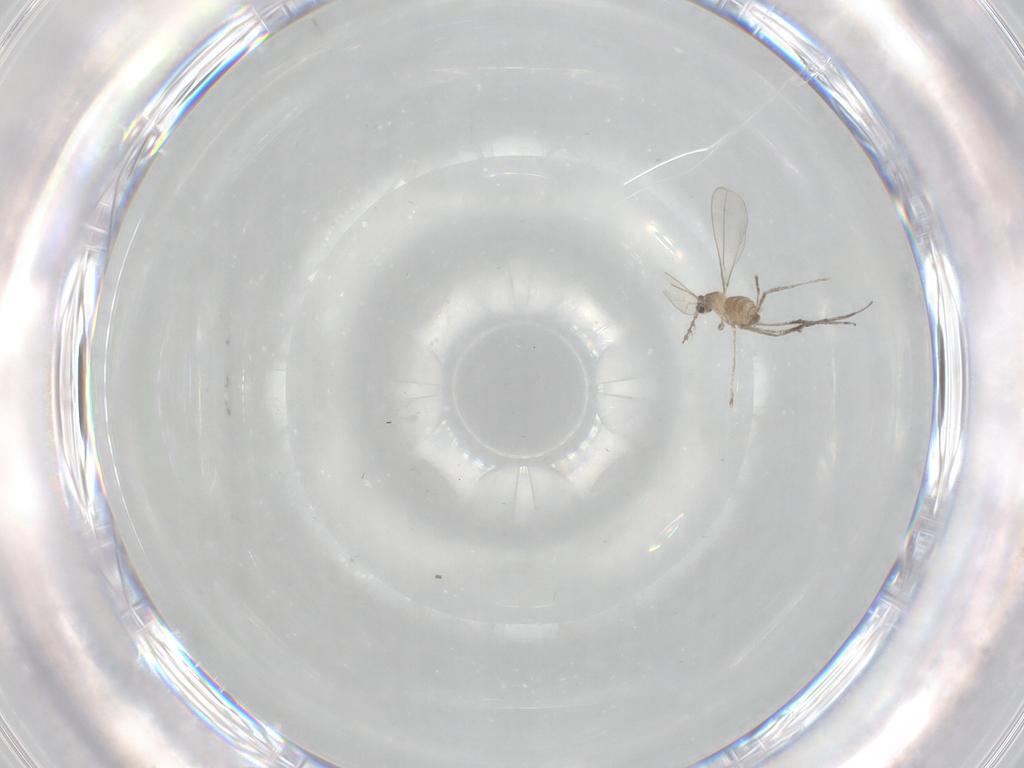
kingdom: Animalia
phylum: Arthropoda
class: Insecta
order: Diptera
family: Cecidomyiidae
